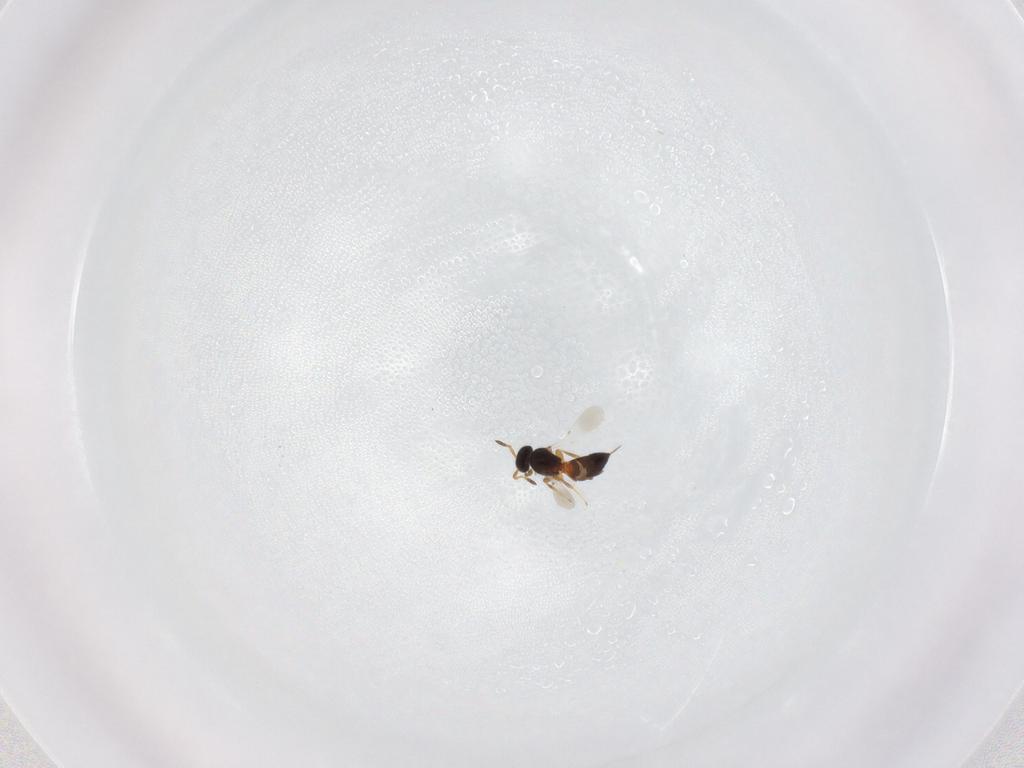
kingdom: Animalia
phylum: Arthropoda
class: Insecta
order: Hymenoptera
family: Platygastridae
